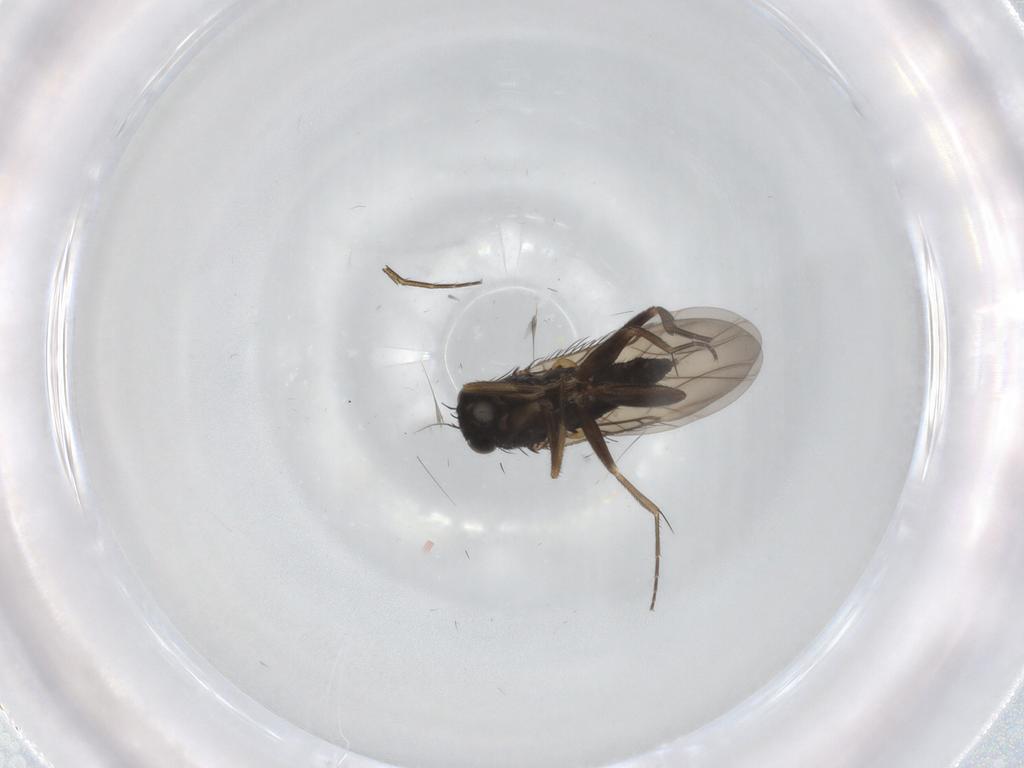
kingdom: Animalia
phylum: Arthropoda
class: Insecta
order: Diptera
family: Phoridae
